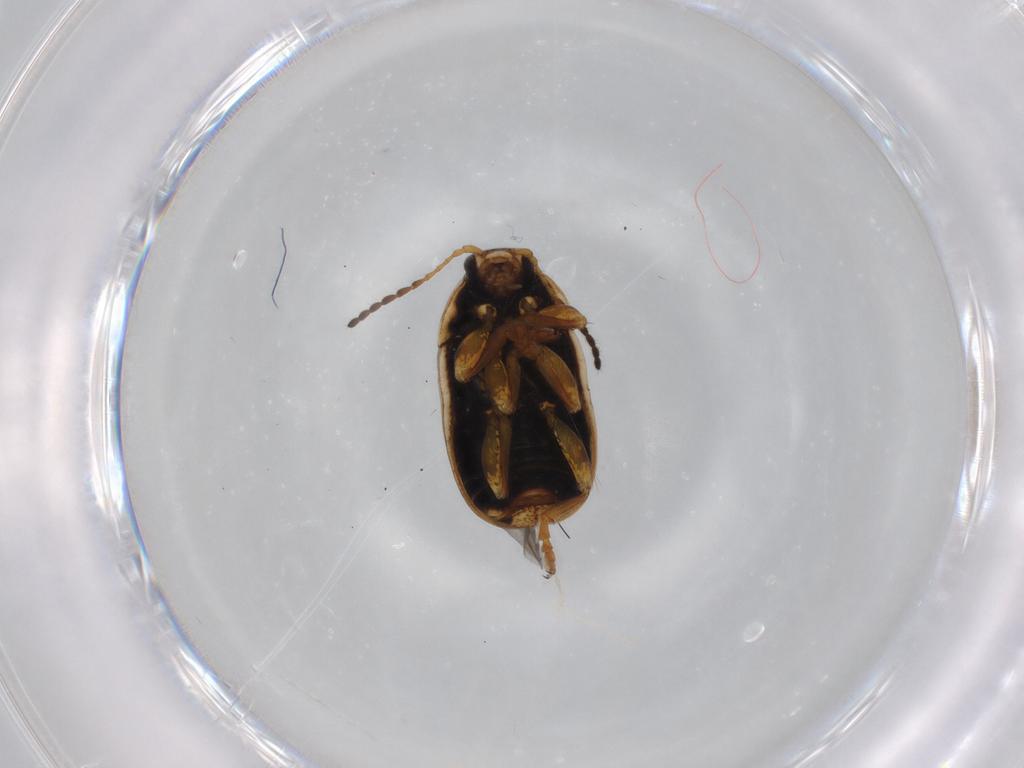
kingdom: Animalia
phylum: Arthropoda
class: Insecta
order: Coleoptera
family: Chrysomelidae
